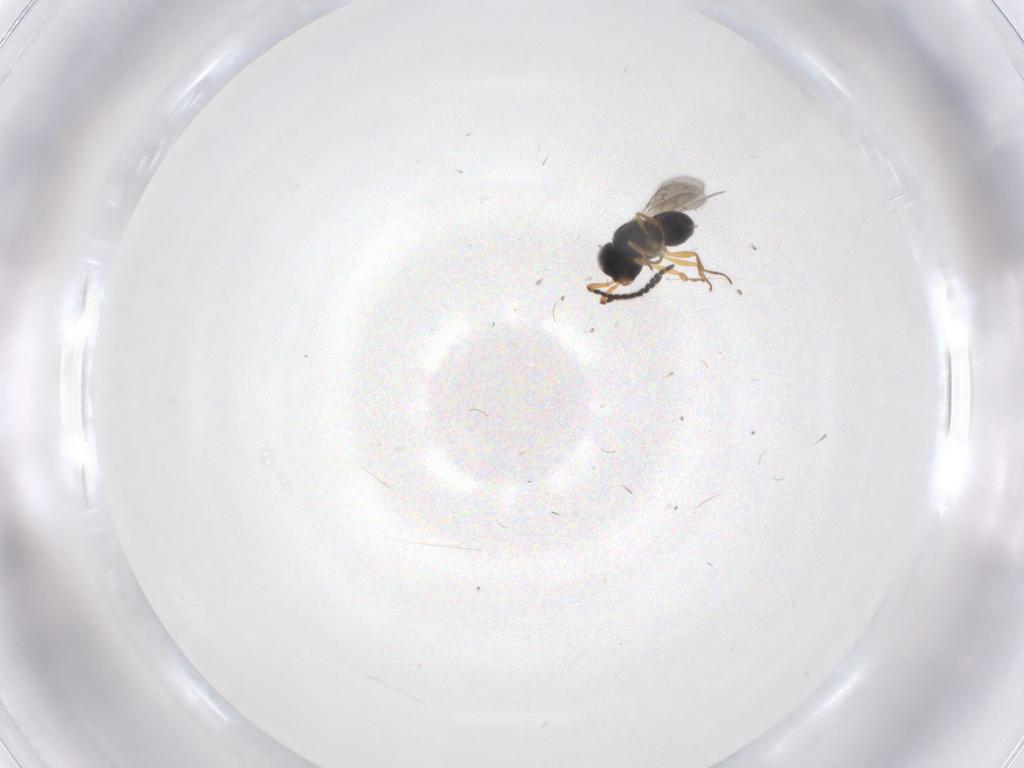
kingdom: Animalia
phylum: Arthropoda
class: Insecta
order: Hymenoptera
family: Scelionidae
